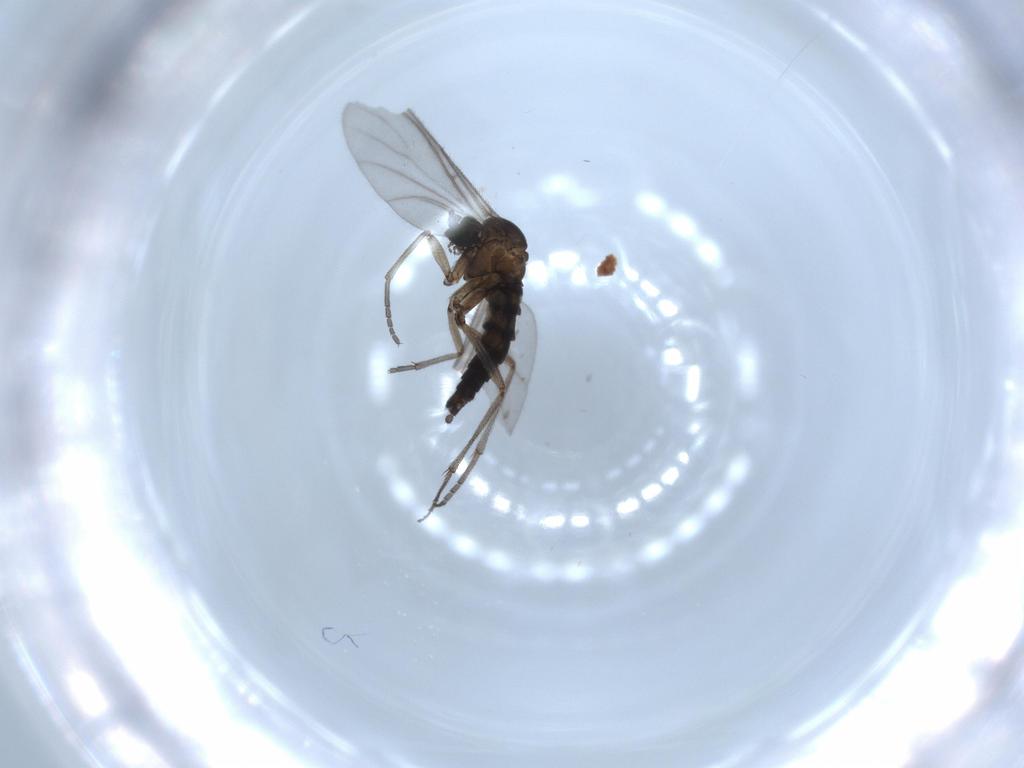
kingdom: Animalia
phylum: Arthropoda
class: Insecta
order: Diptera
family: Sciaridae
